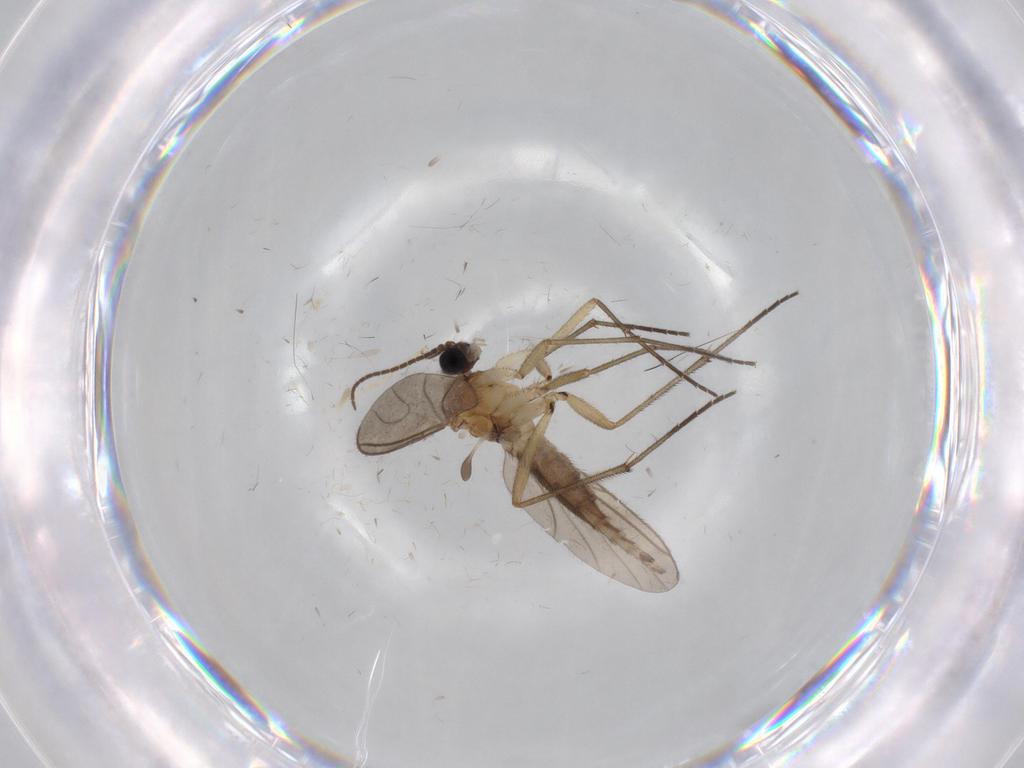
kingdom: Animalia
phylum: Arthropoda
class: Insecta
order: Diptera
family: Chironomidae
